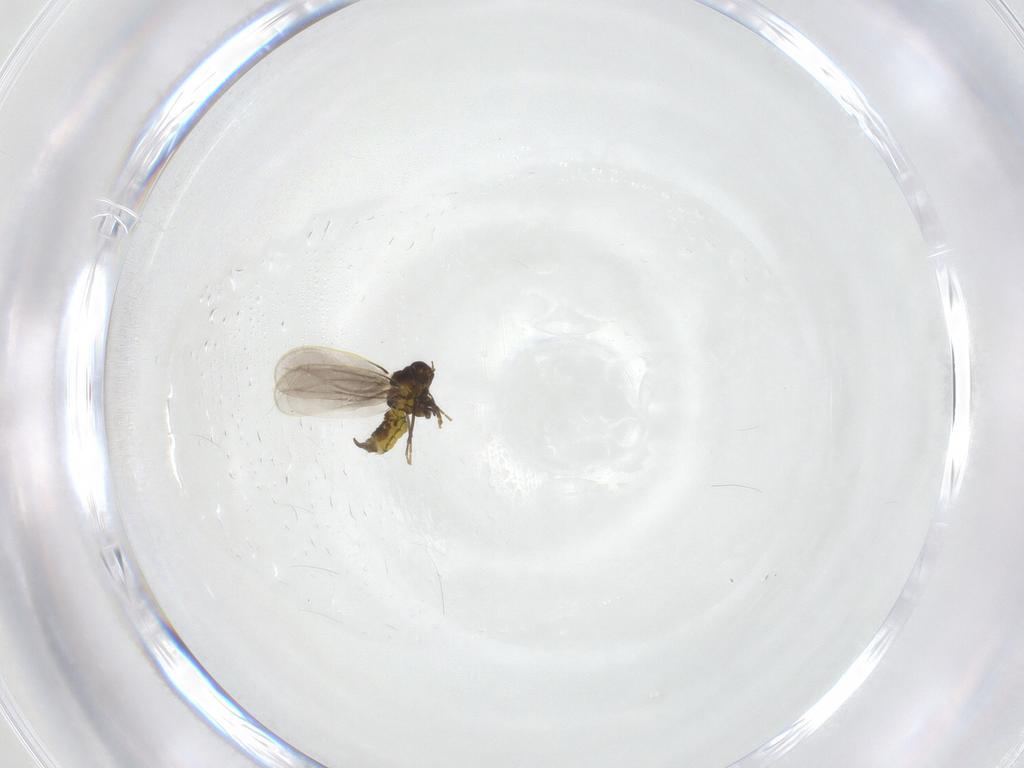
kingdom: Animalia
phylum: Arthropoda
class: Insecta
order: Hemiptera
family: Aleyrodidae
